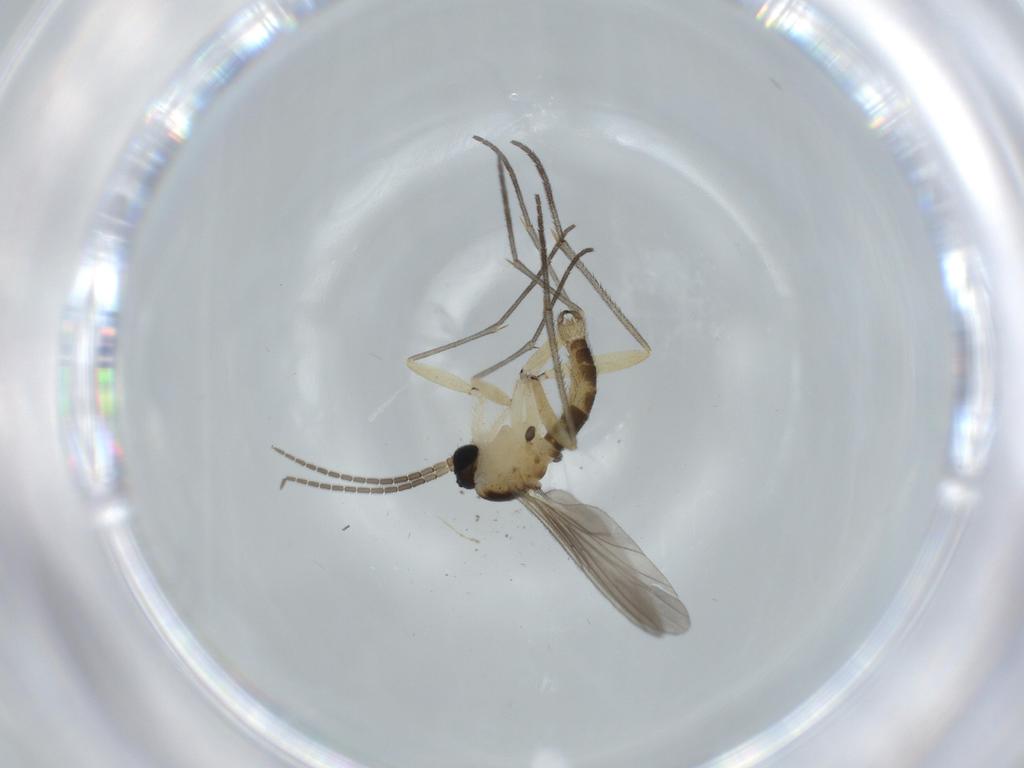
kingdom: Animalia
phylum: Arthropoda
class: Insecta
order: Diptera
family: Sciaridae
